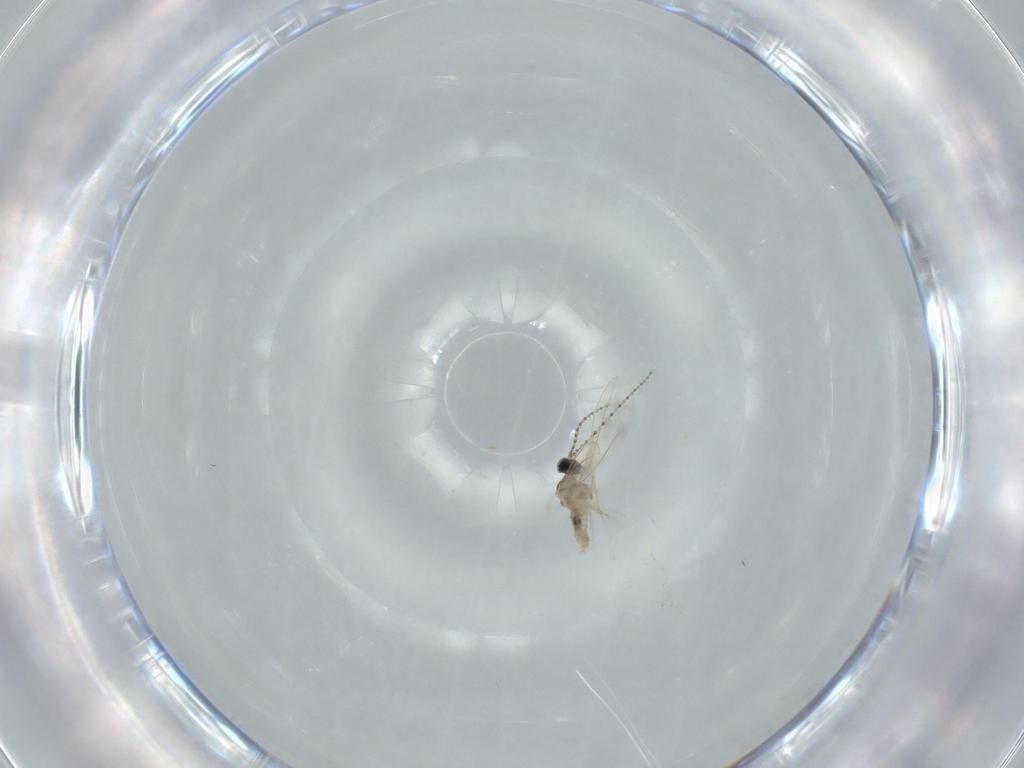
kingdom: Animalia
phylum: Arthropoda
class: Insecta
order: Diptera
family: Cecidomyiidae
